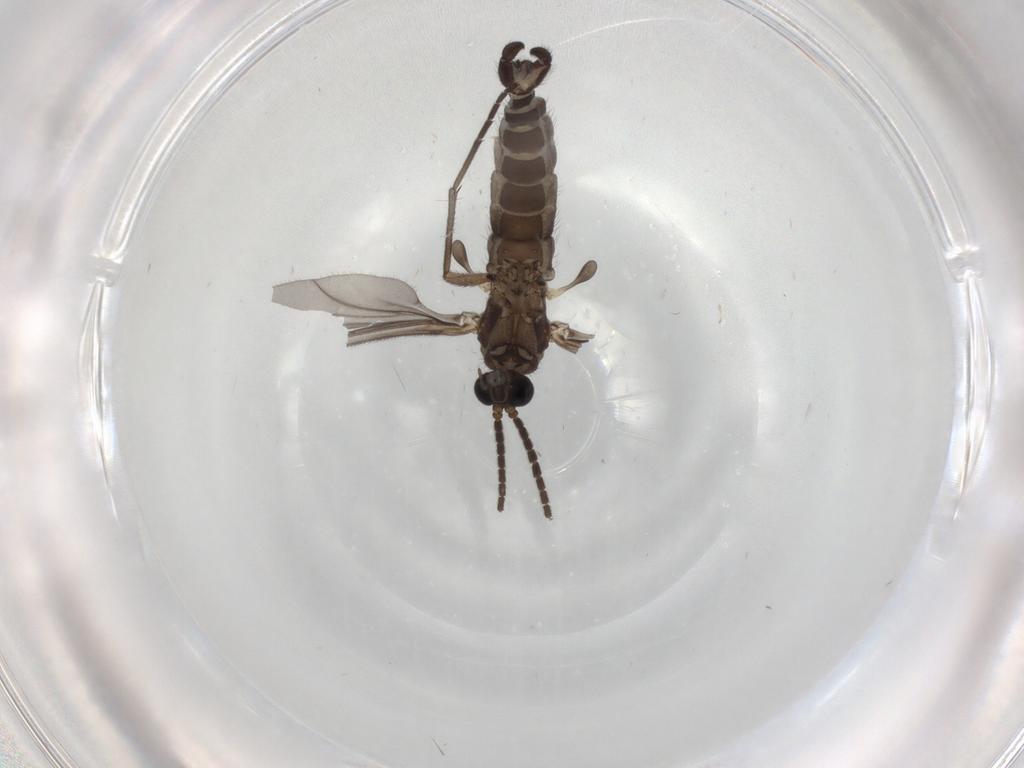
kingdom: Animalia
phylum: Arthropoda
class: Insecta
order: Diptera
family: Sciaridae
